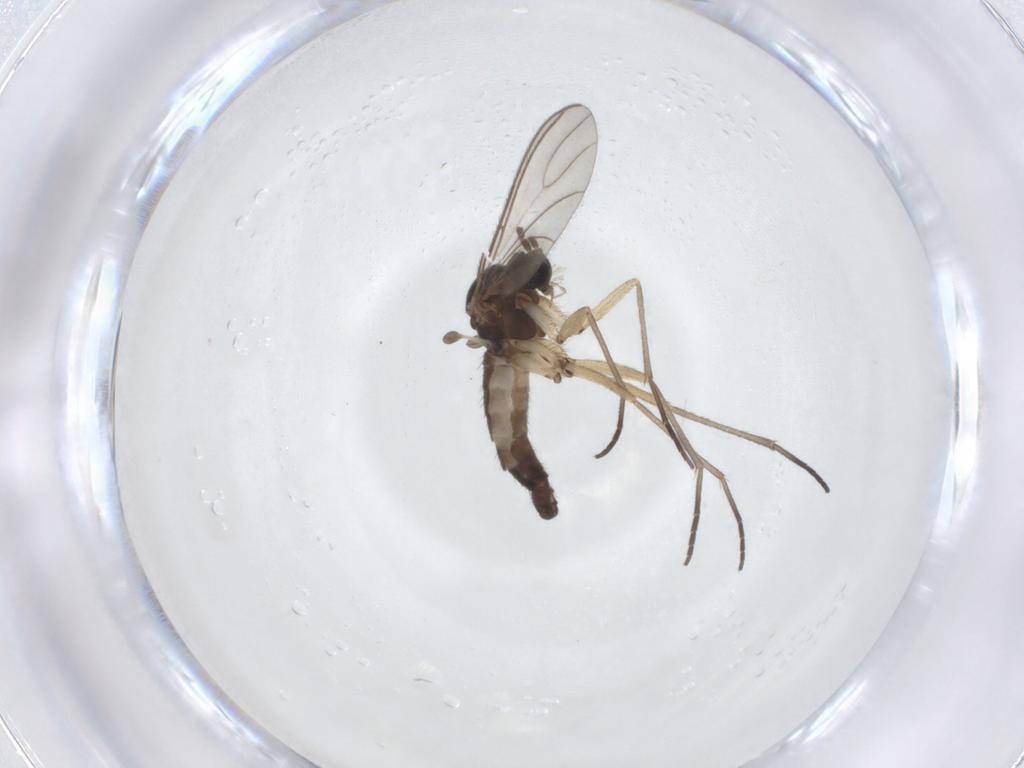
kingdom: Animalia
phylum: Arthropoda
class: Insecta
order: Diptera
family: Sciaridae
